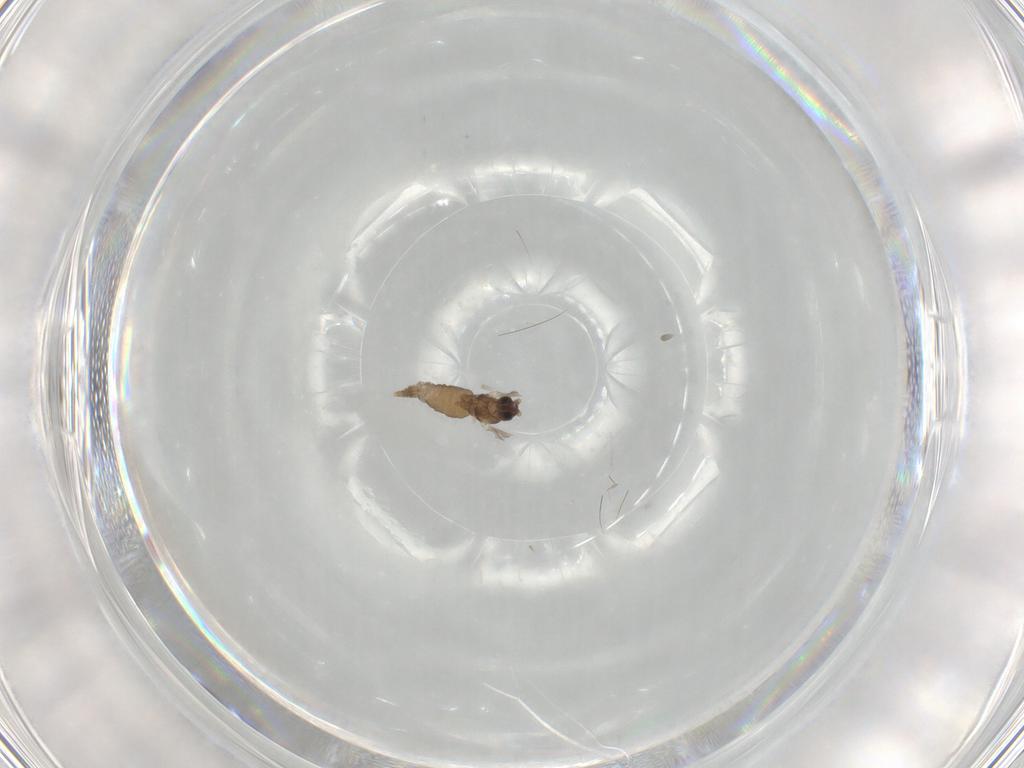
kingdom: Animalia
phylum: Arthropoda
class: Insecta
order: Diptera
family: Cecidomyiidae
